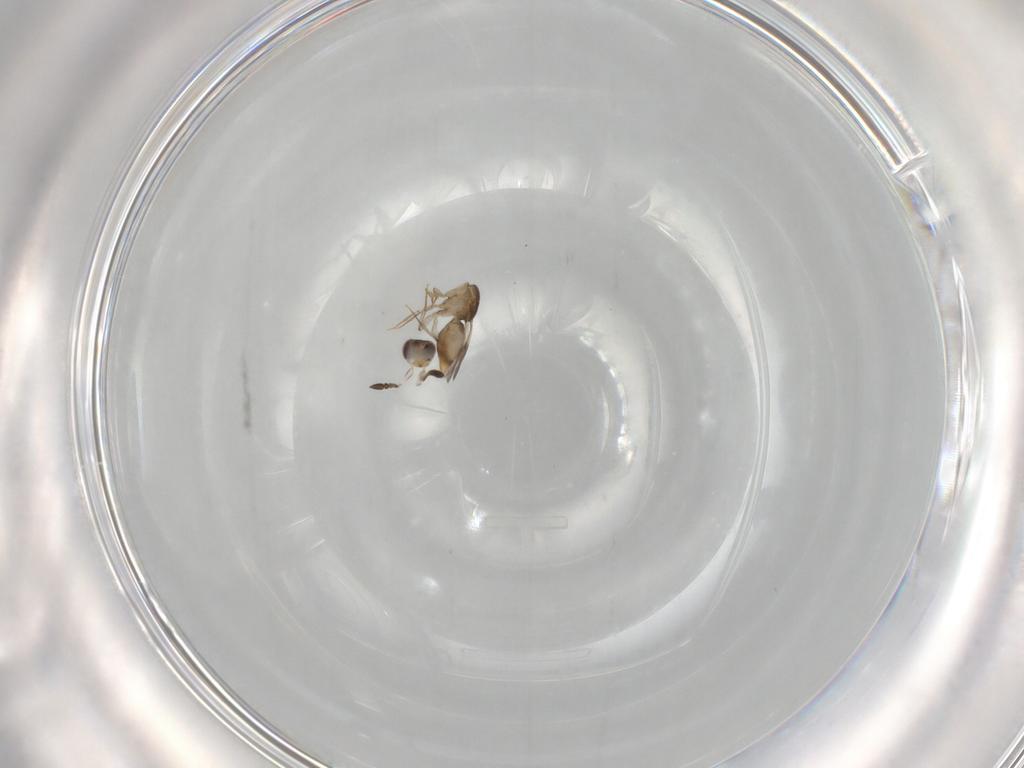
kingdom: Animalia
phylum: Arthropoda
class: Insecta
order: Hymenoptera
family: Ceraphronidae
